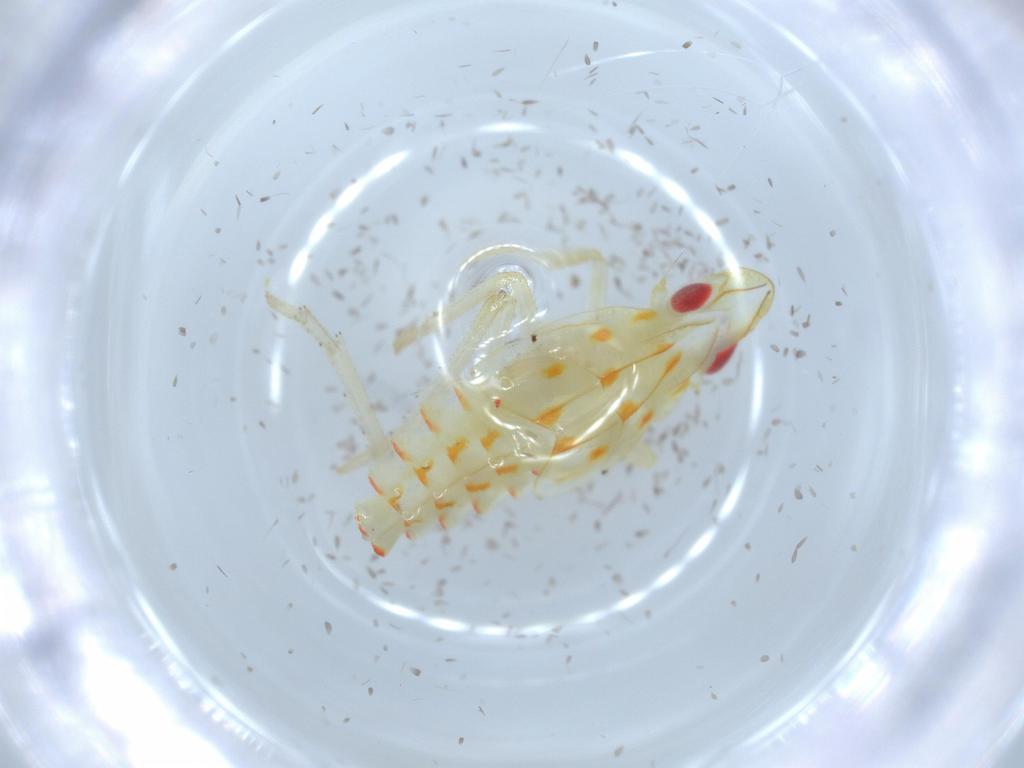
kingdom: Animalia
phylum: Arthropoda
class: Insecta
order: Hemiptera
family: Tropiduchidae
